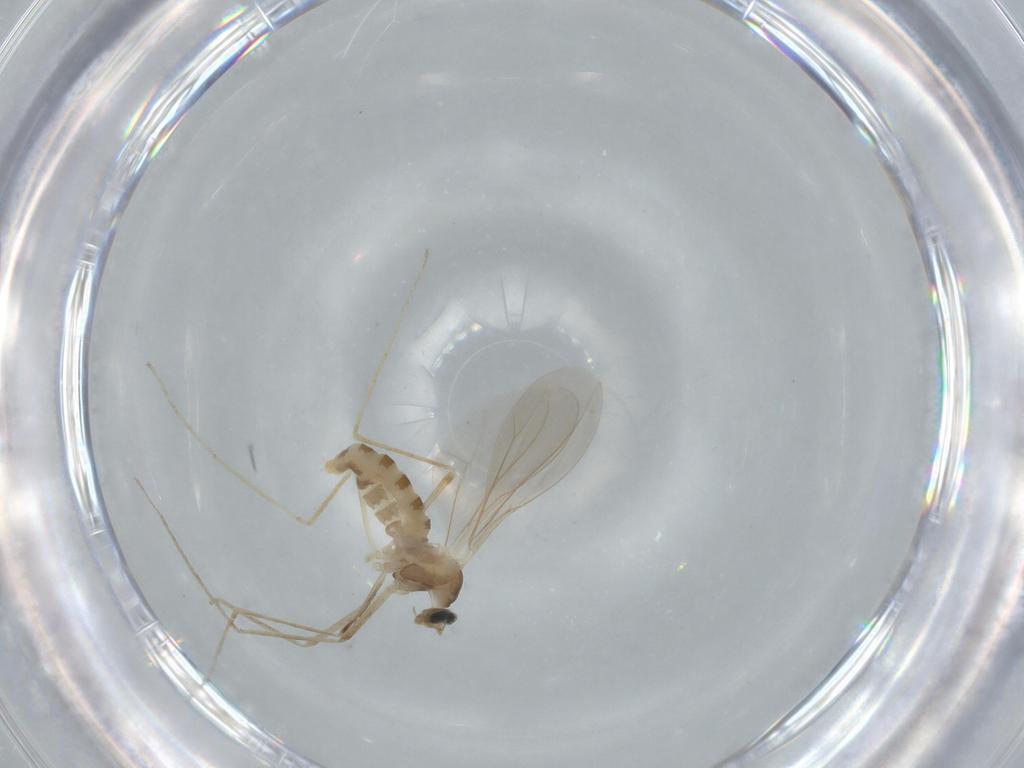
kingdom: Animalia
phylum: Arthropoda
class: Insecta
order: Diptera
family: Cecidomyiidae
